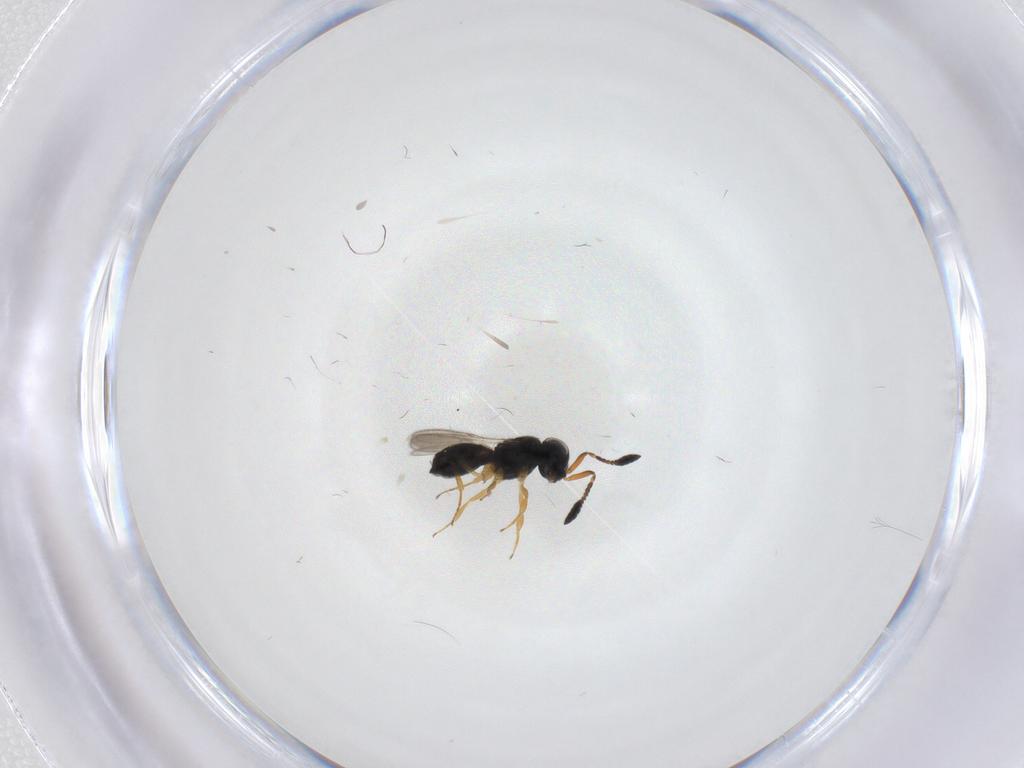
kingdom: Animalia
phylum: Arthropoda
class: Insecta
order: Hymenoptera
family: Scelionidae
